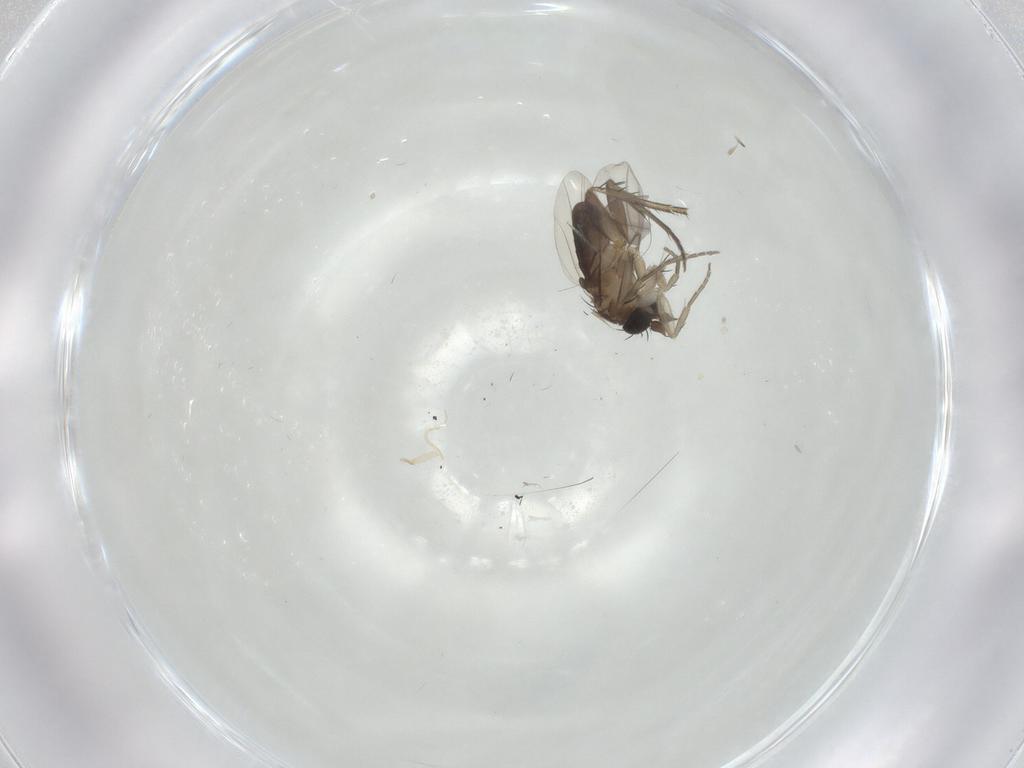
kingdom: Animalia
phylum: Arthropoda
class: Insecta
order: Diptera
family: Phoridae
